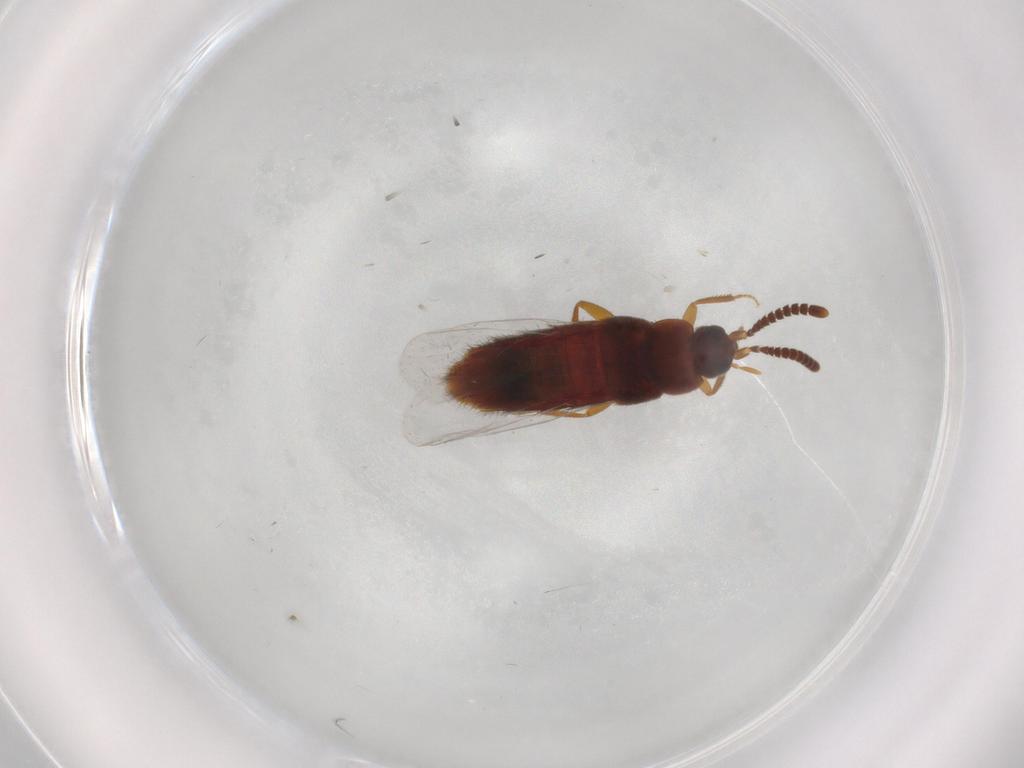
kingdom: Animalia
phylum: Arthropoda
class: Insecta
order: Coleoptera
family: Staphylinidae
